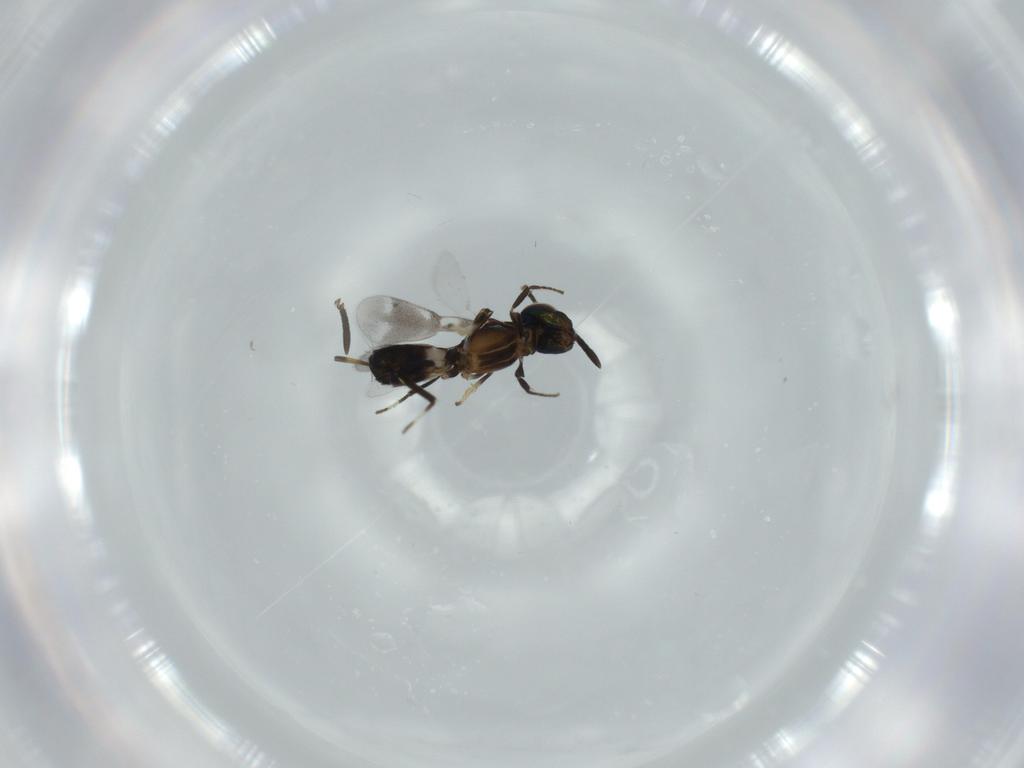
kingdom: Animalia
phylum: Arthropoda
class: Insecta
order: Hymenoptera
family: Eupelmidae
